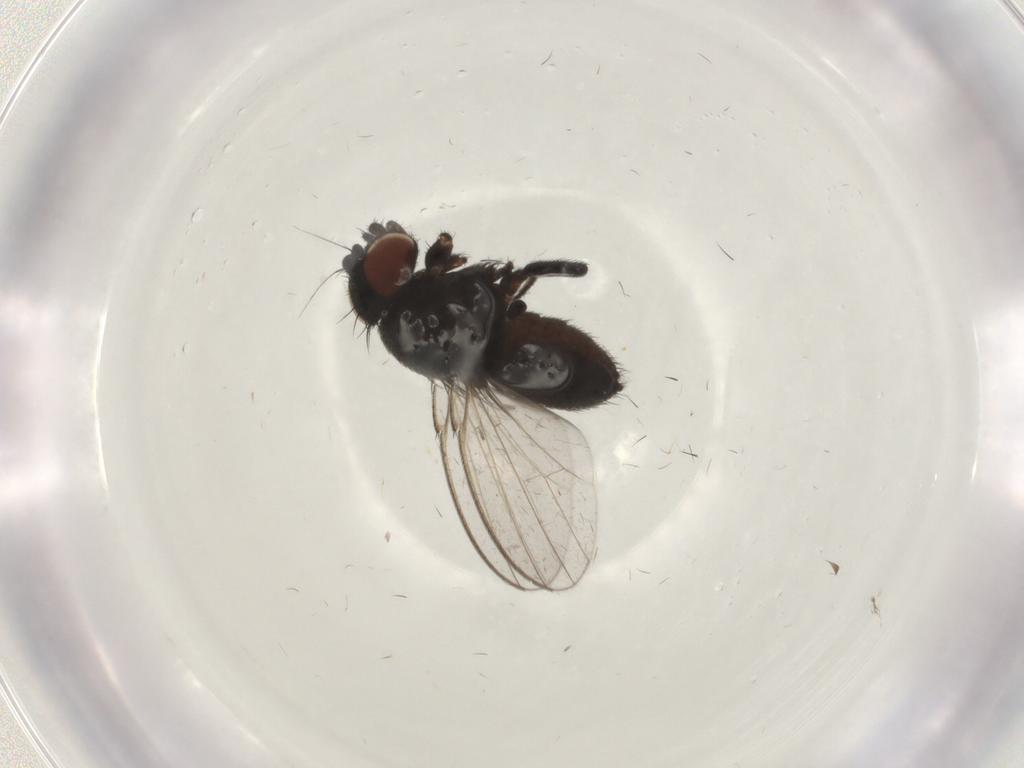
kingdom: Animalia
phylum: Arthropoda
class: Insecta
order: Diptera
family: Milichiidae
